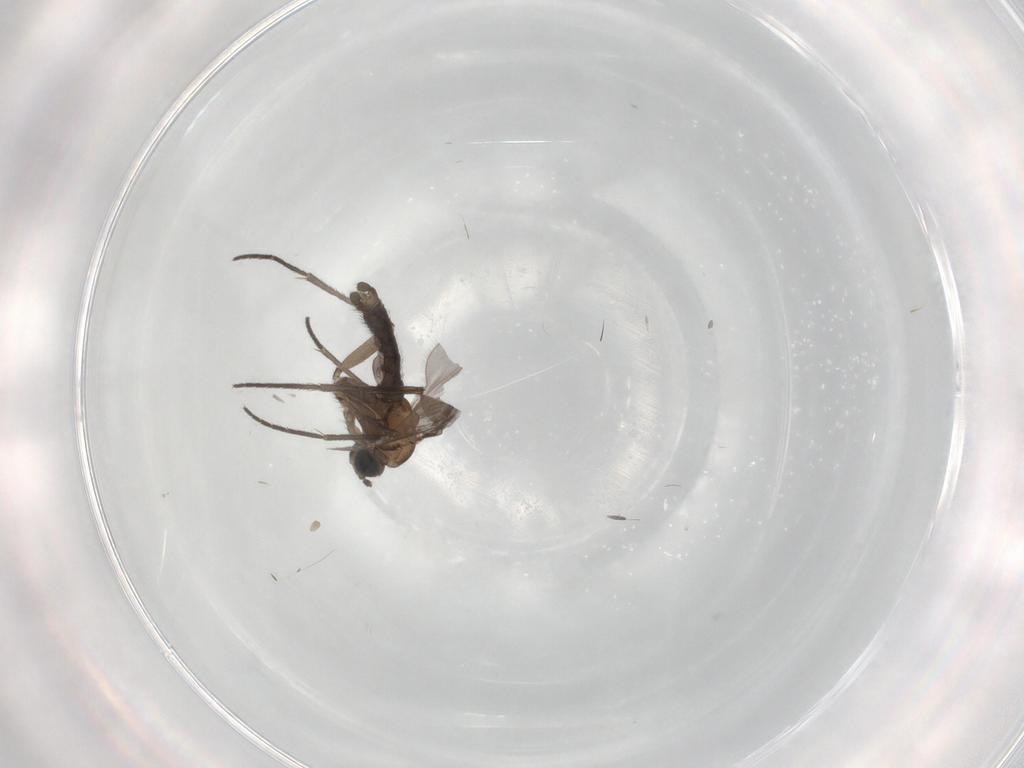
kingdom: Animalia
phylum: Arthropoda
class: Insecta
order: Diptera
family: Sciaridae
